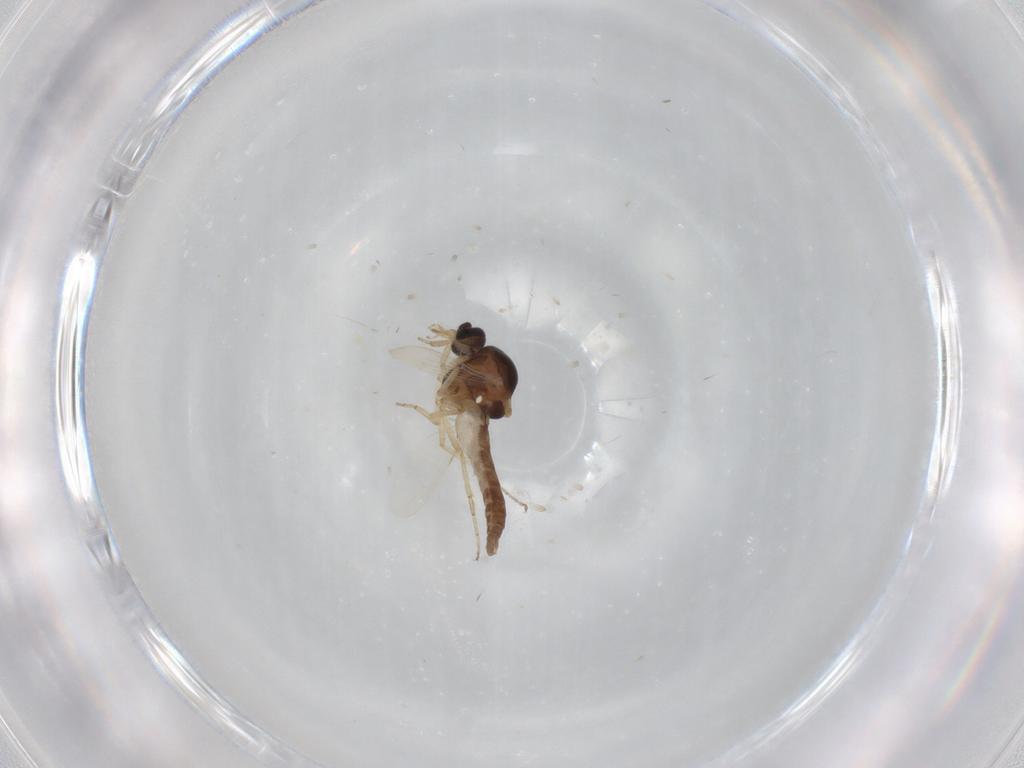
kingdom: Animalia
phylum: Arthropoda
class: Insecta
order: Diptera
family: Ceratopogonidae
